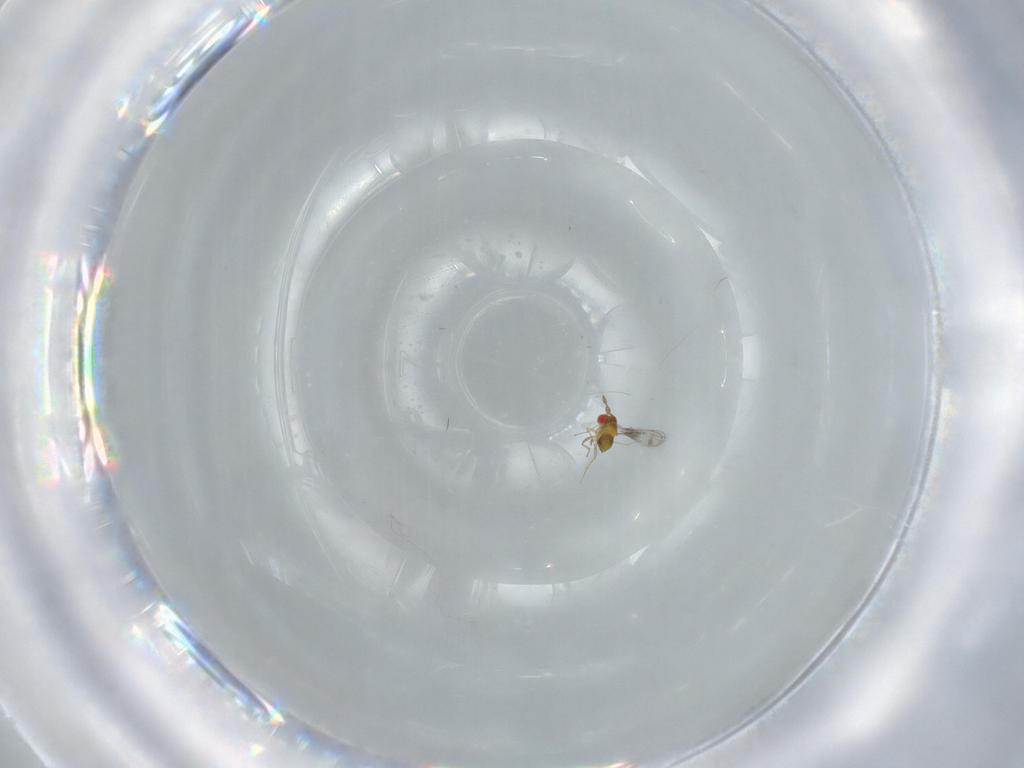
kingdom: Animalia
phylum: Arthropoda
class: Insecta
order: Hymenoptera
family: Trichogrammatidae
